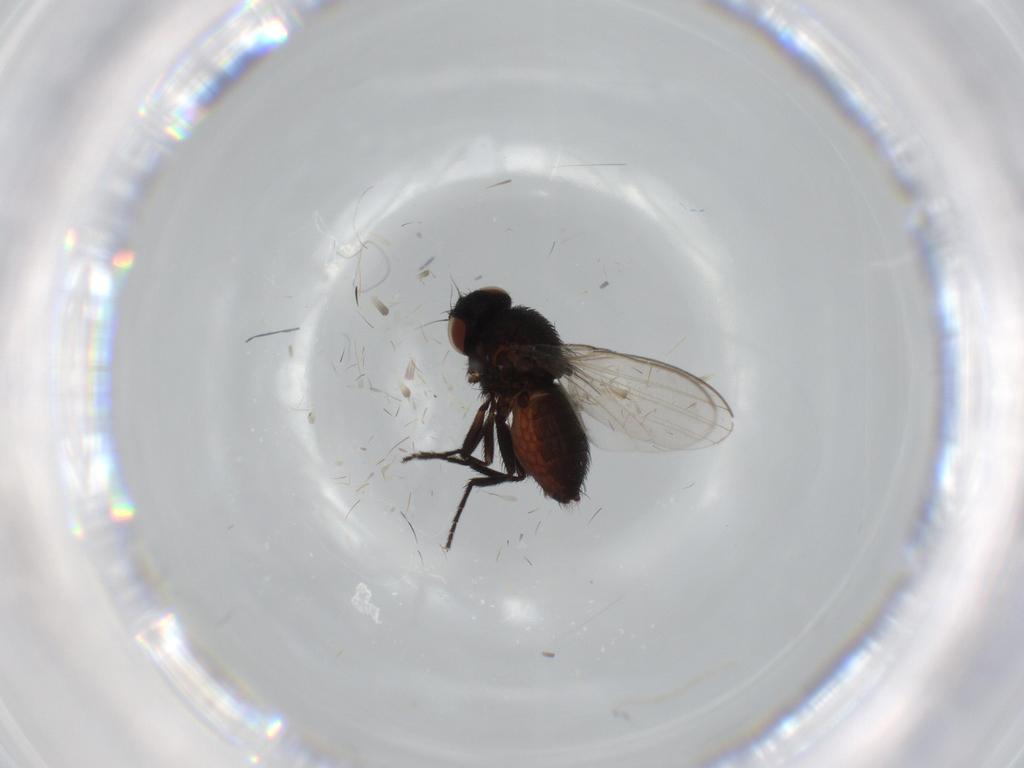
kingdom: Animalia
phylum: Arthropoda
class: Insecta
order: Diptera
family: Milichiidae
